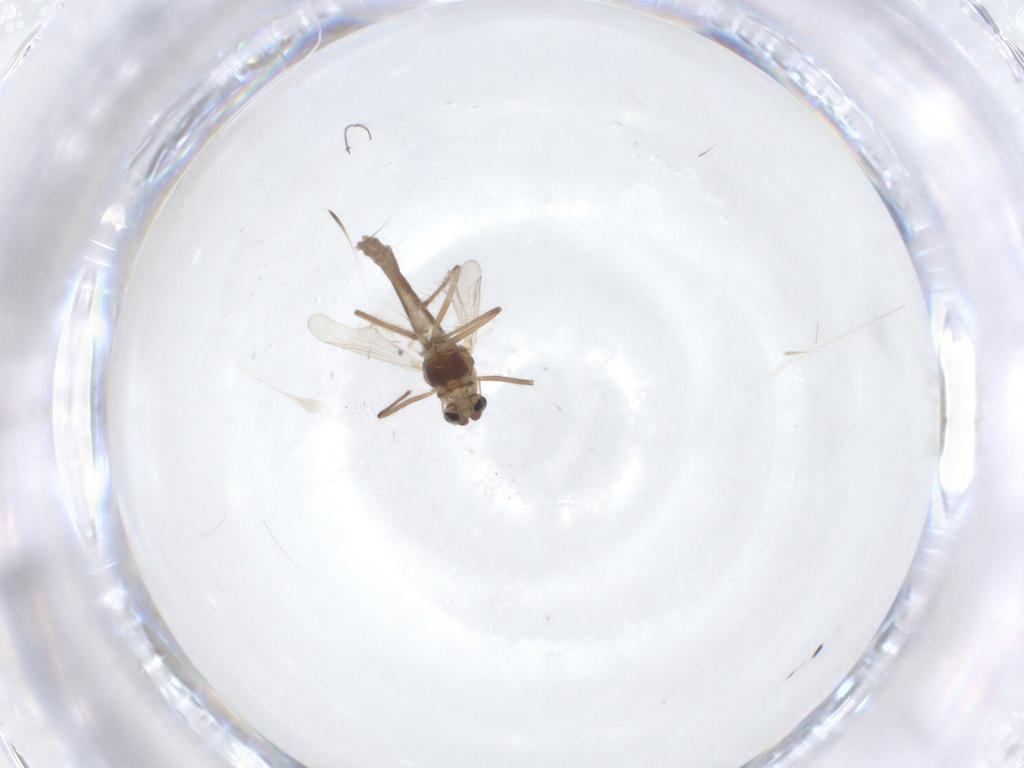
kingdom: Animalia
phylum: Arthropoda
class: Insecta
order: Diptera
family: Chironomidae
